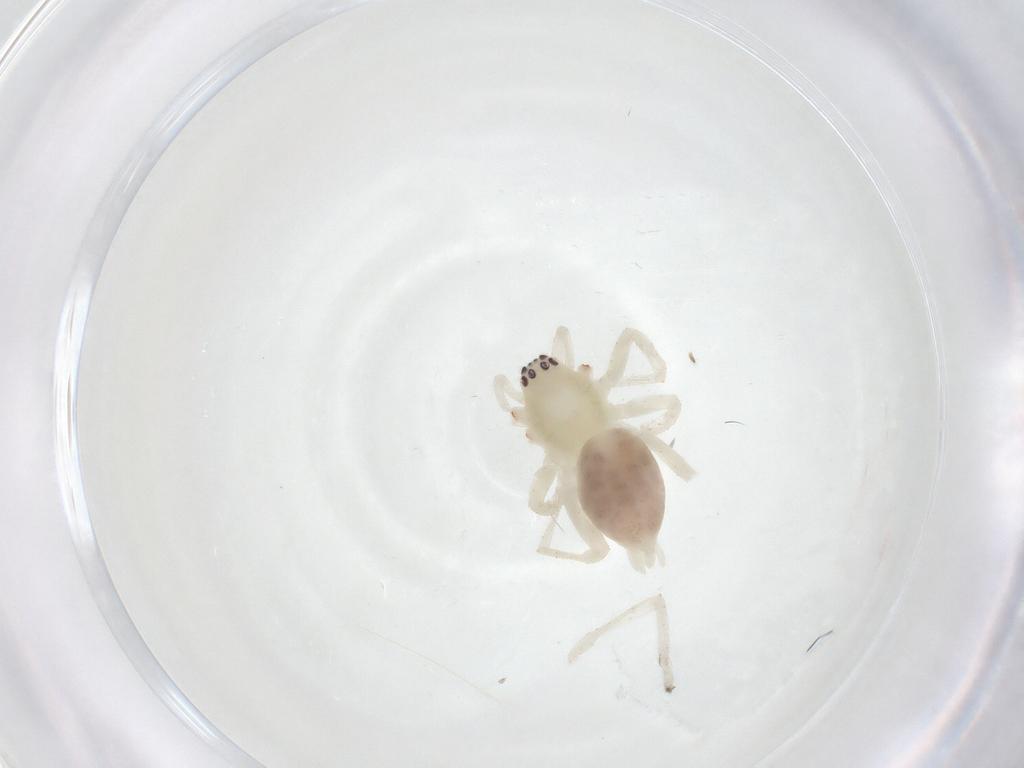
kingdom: Animalia
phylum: Arthropoda
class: Arachnida
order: Araneae
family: Anyphaenidae
